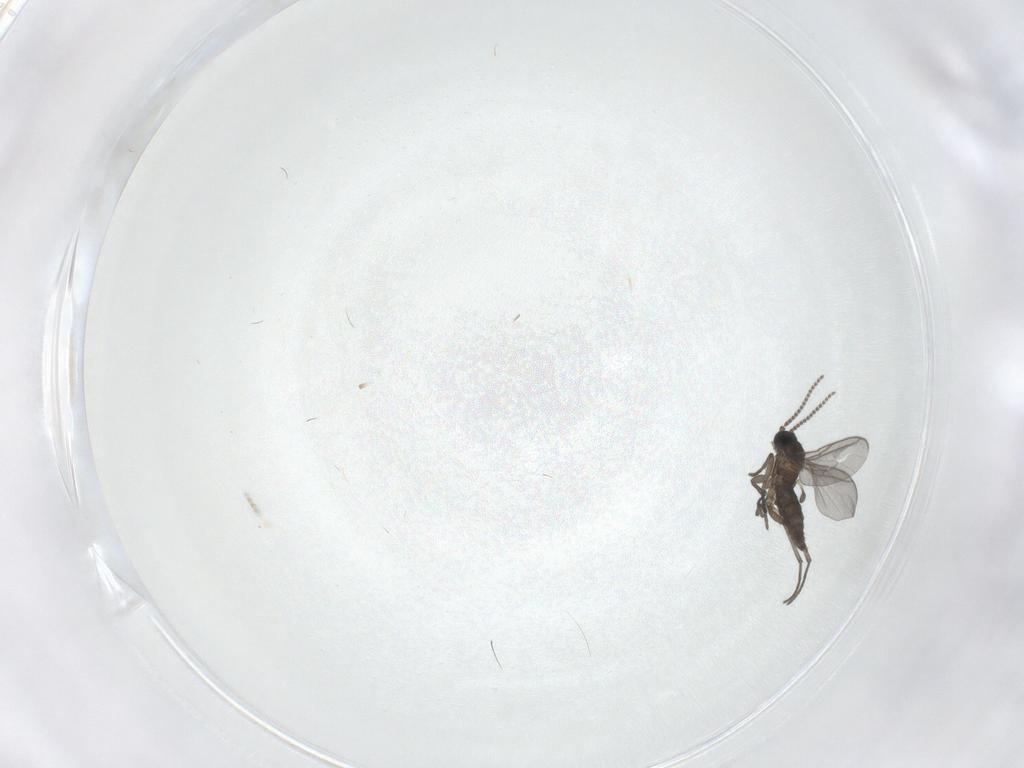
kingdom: Animalia
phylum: Arthropoda
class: Insecta
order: Diptera
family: Sciaridae
